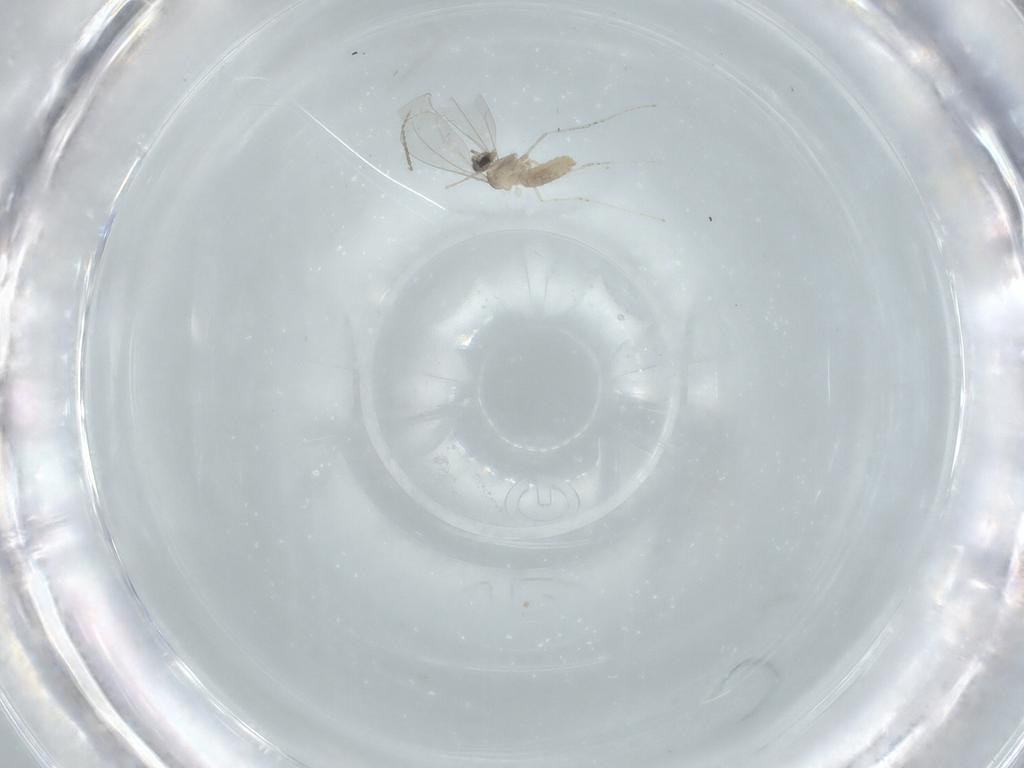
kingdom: Animalia
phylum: Arthropoda
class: Insecta
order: Diptera
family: Cecidomyiidae
